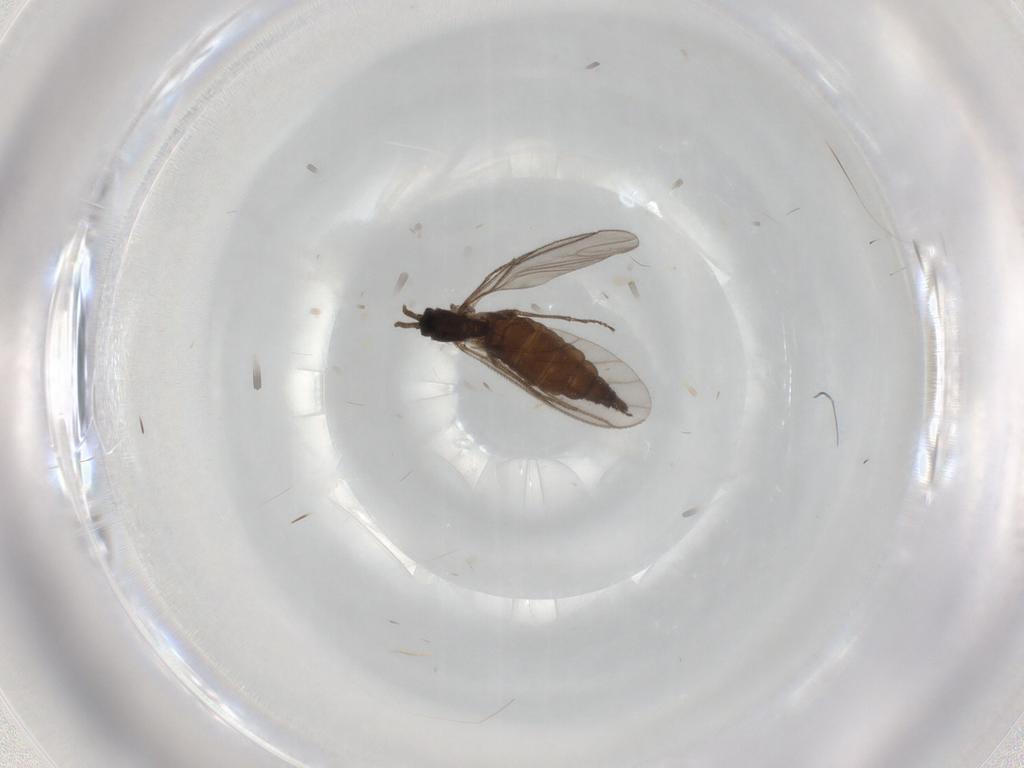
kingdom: Animalia
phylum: Arthropoda
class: Insecta
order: Diptera
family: Sciaridae
